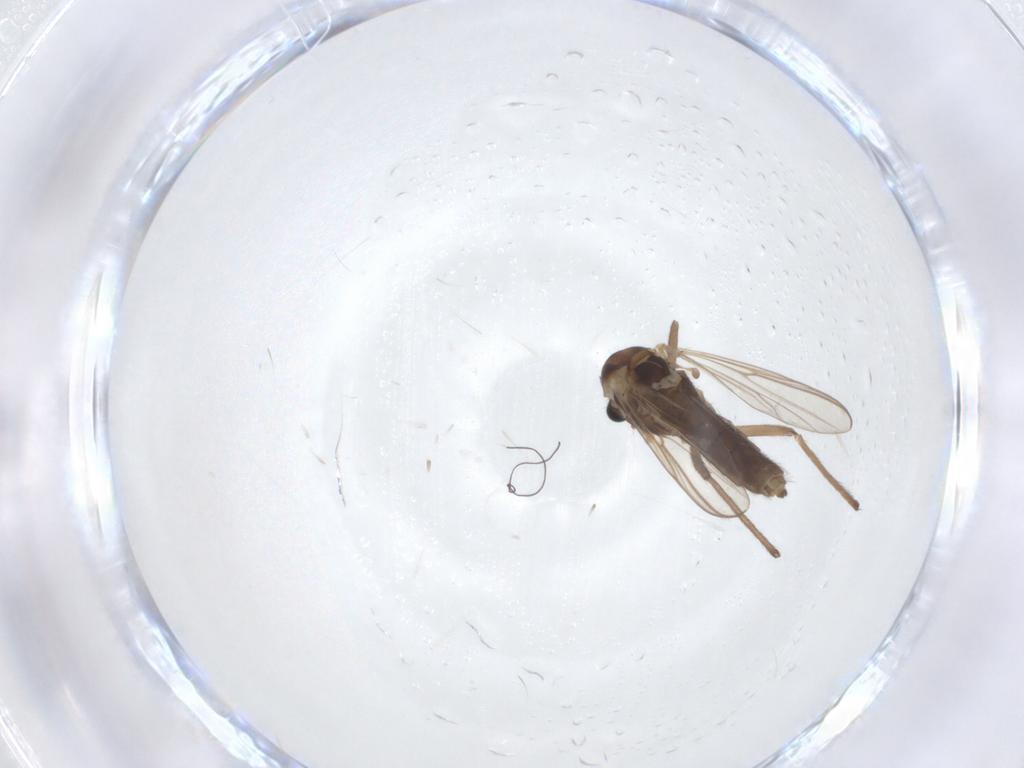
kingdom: Animalia
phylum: Arthropoda
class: Insecta
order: Diptera
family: Chironomidae
